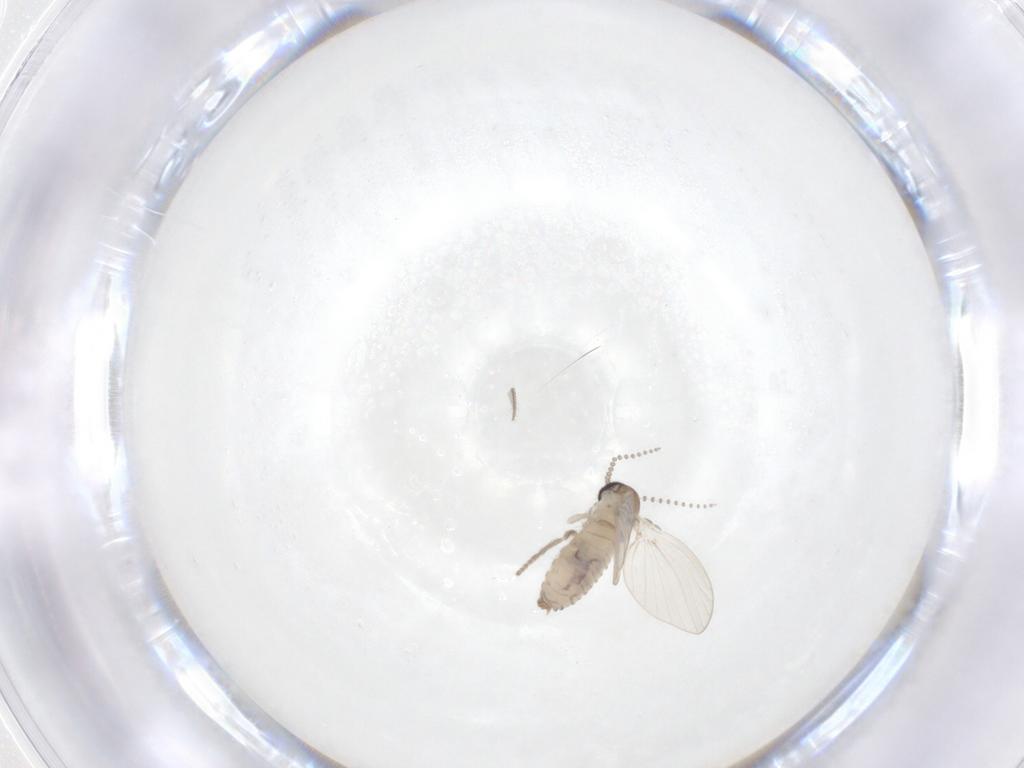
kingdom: Animalia
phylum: Arthropoda
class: Insecta
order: Diptera
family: Psychodidae
